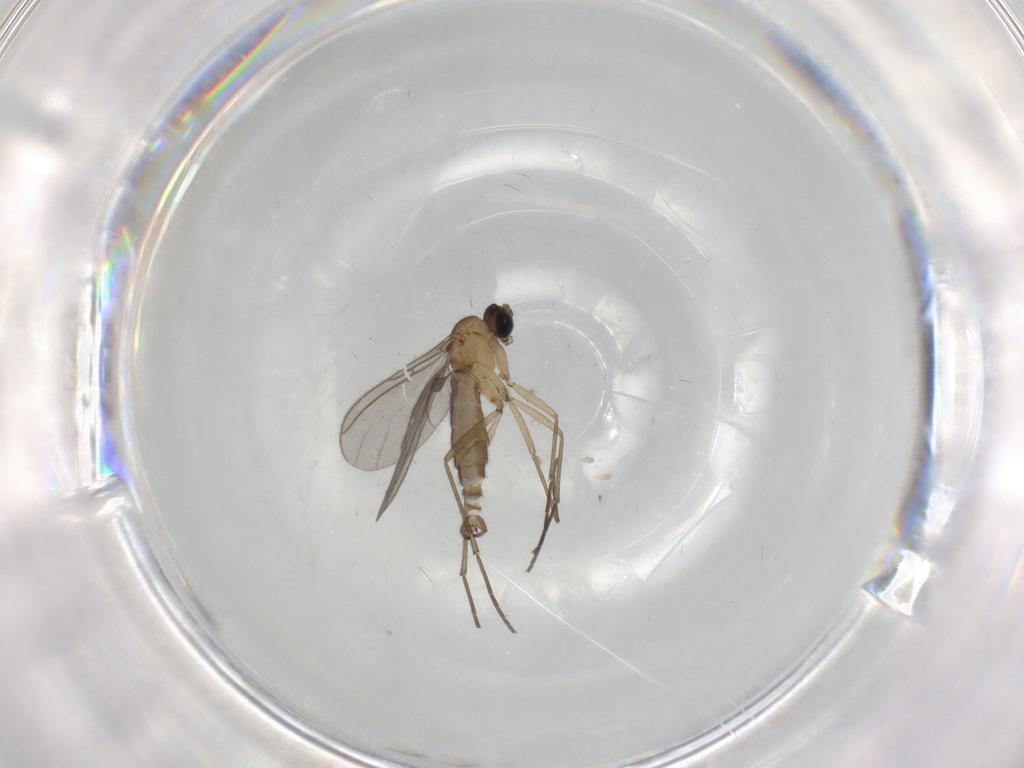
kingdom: Animalia
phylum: Arthropoda
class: Insecta
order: Diptera
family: Sciaridae
